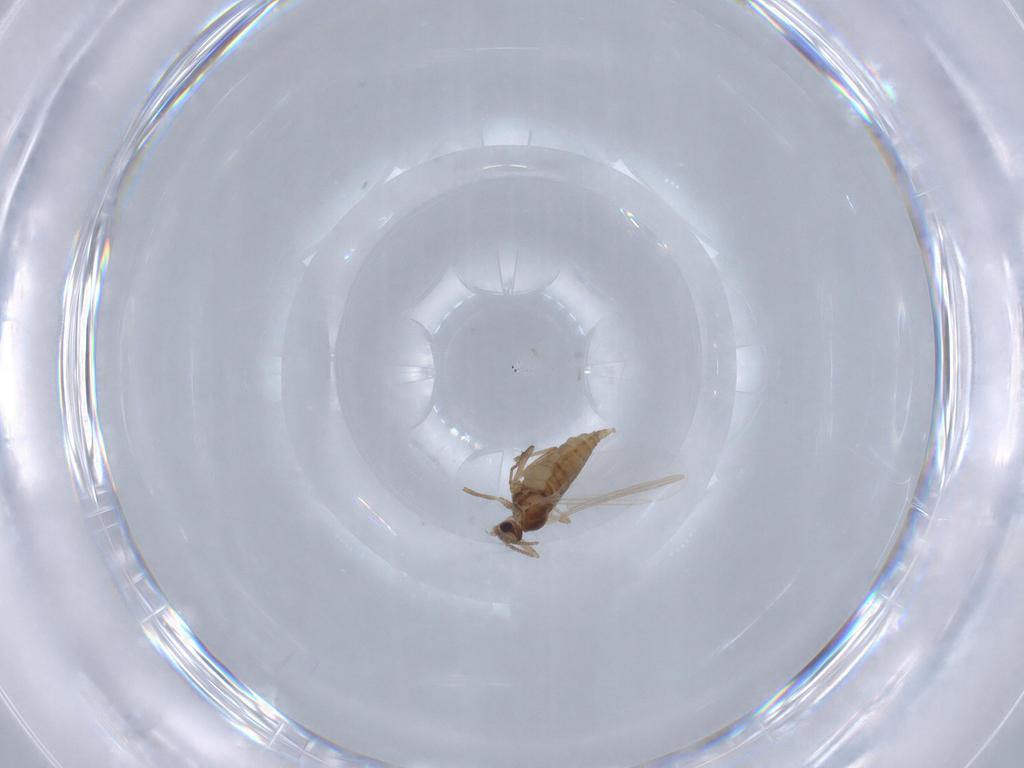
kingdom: Animalia
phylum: Arthropoda
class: Insecta
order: Diptera
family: Cecidomyiidae
